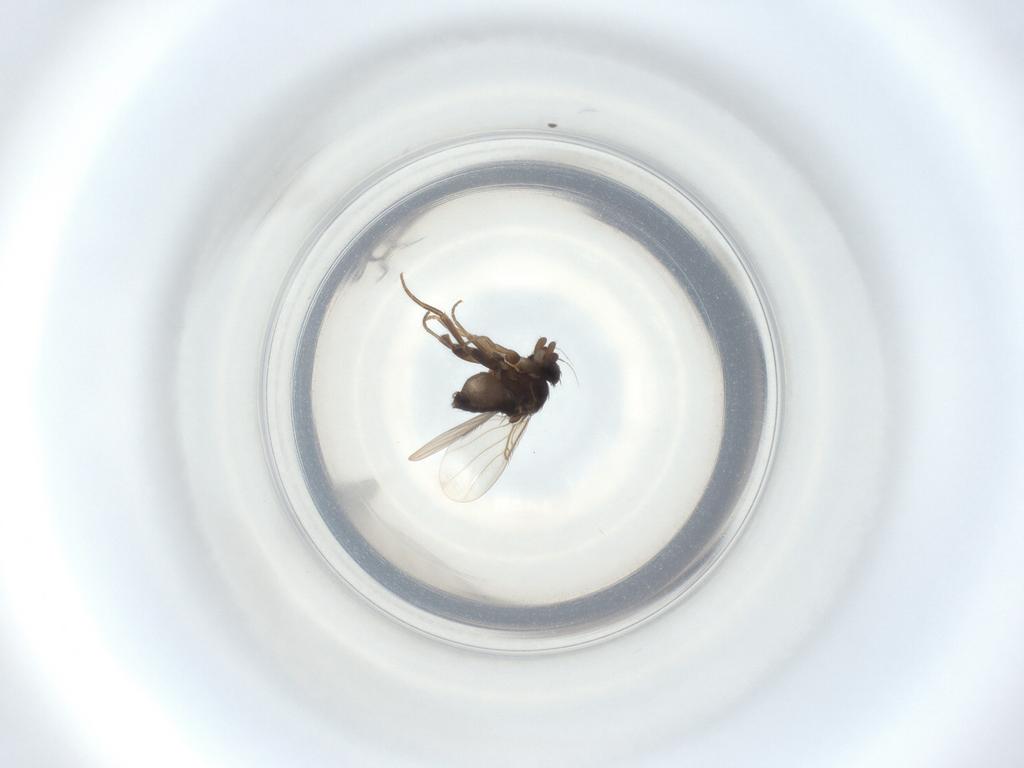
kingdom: Animalia
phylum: Arthropoda
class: Insecta
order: Diptera
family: Phoridae
